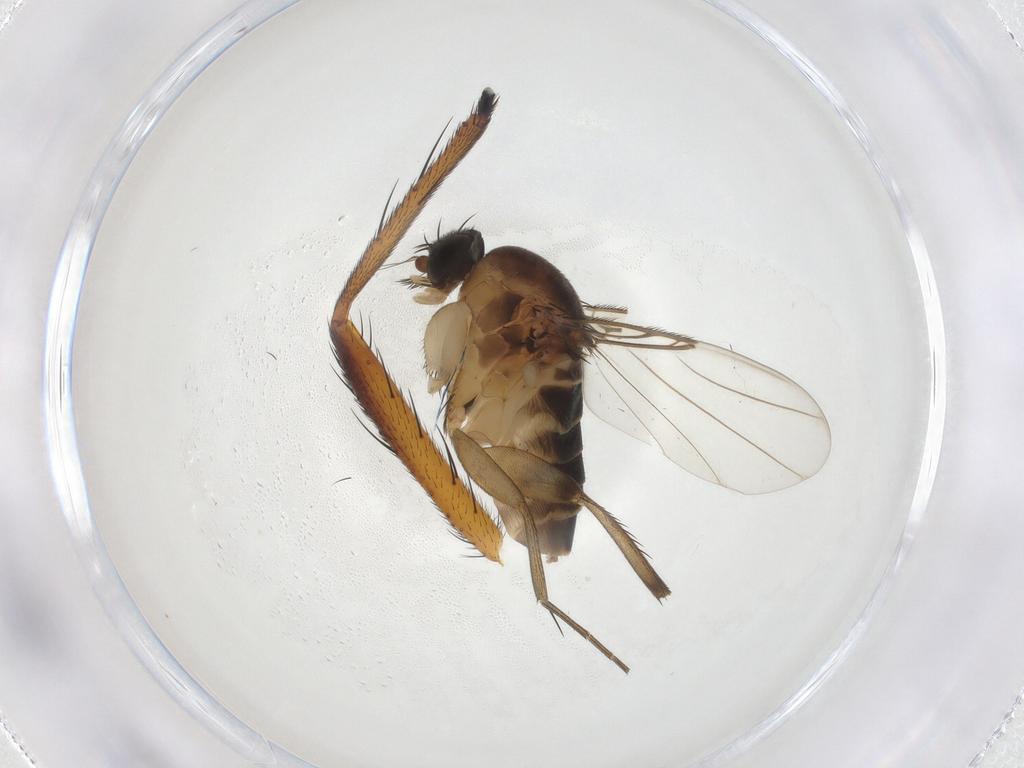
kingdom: Animalia
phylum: Arthropoda
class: Insecta
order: Diptera
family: Phoridae
